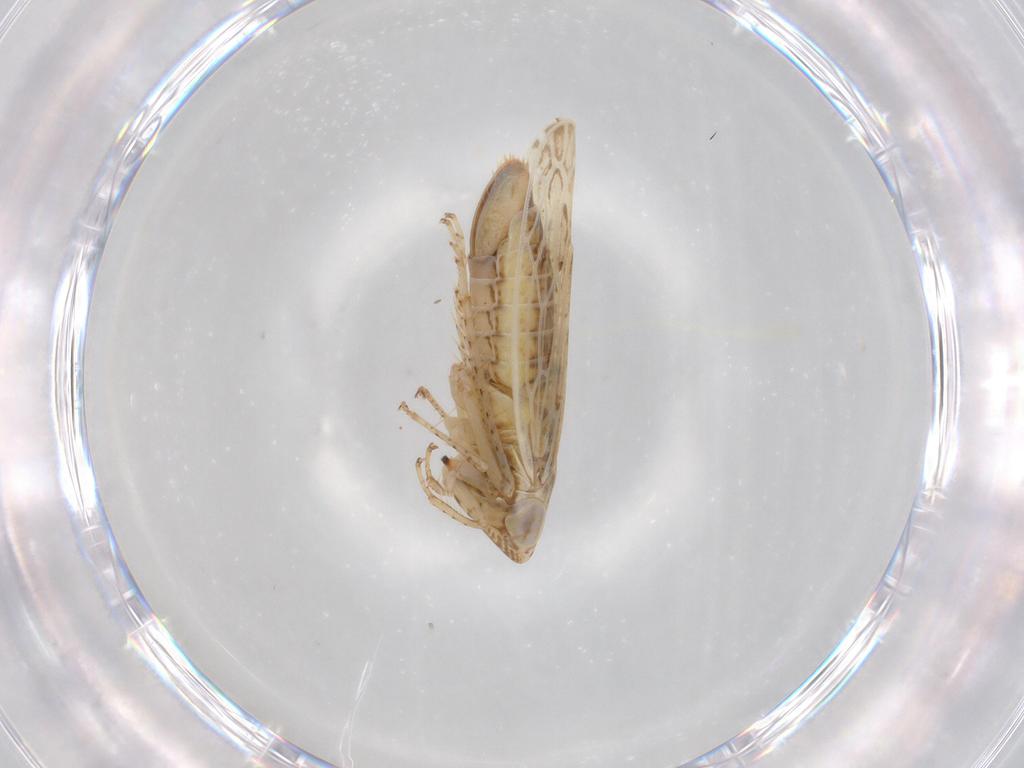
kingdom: Animalia
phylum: Arthropoda
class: Insecta
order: Hemiptera
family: Cicadellidae
